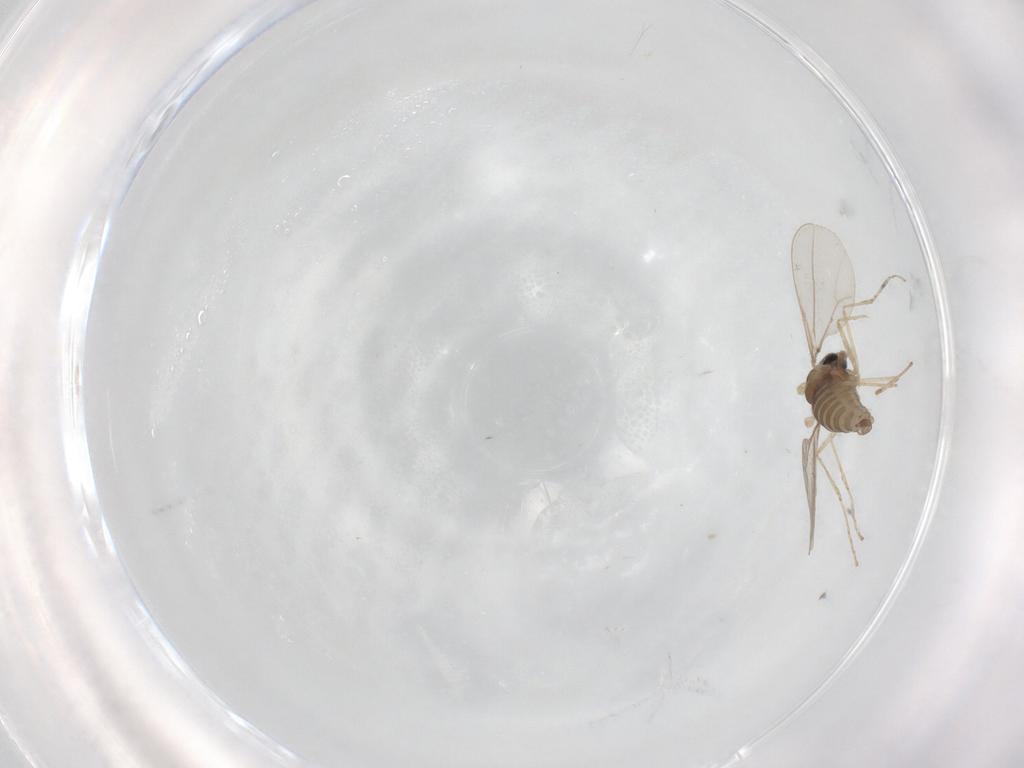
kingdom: Animalia
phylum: Arthropoda
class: Insecta
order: Diptera
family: Cecidomyiidae
